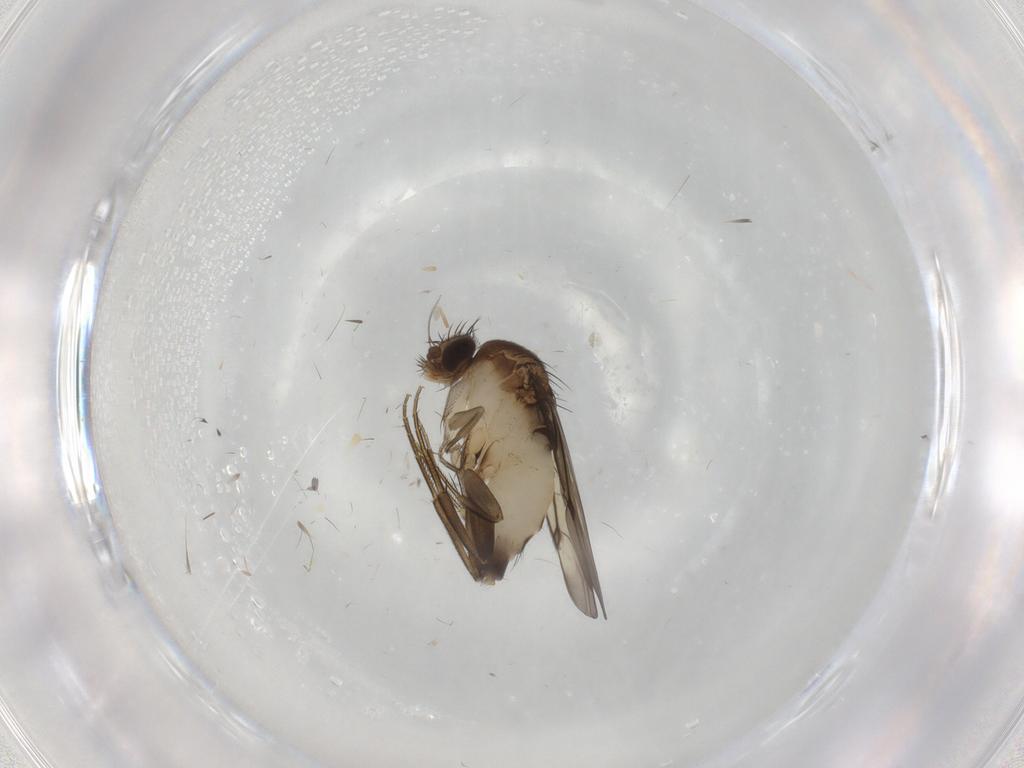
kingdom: Animalia
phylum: Arthropoda
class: Insecta
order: Diptera
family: Phoridae
